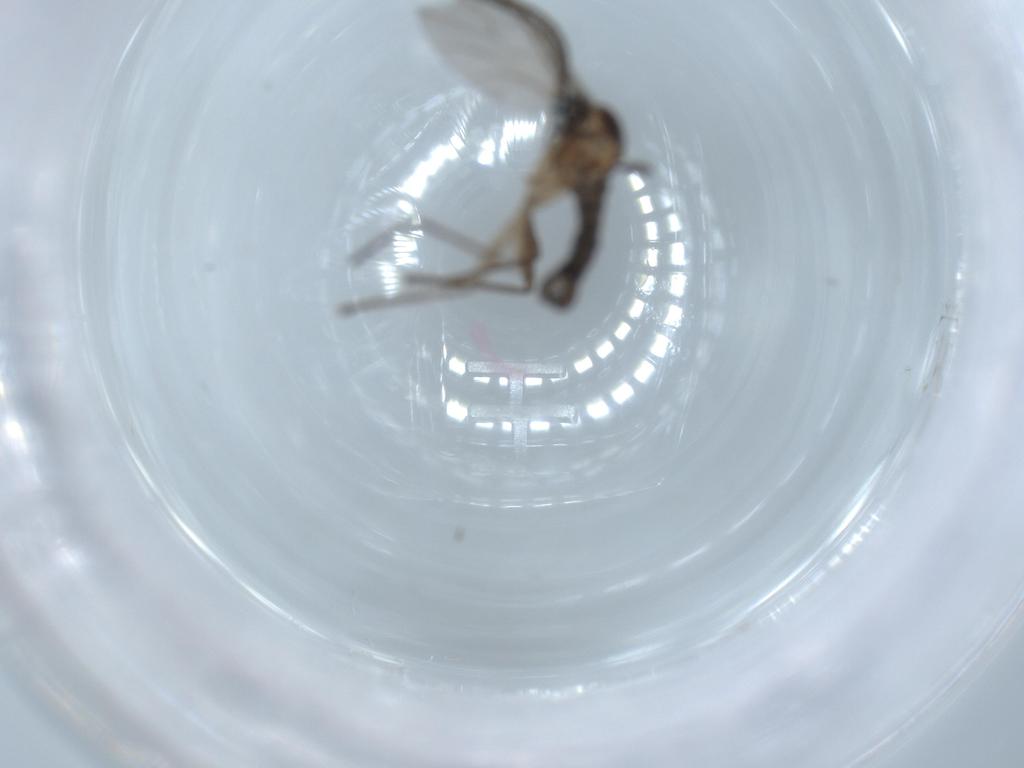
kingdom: Animalia
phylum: Arthropoda
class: Insecta
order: Diptera
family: Sciaridae
